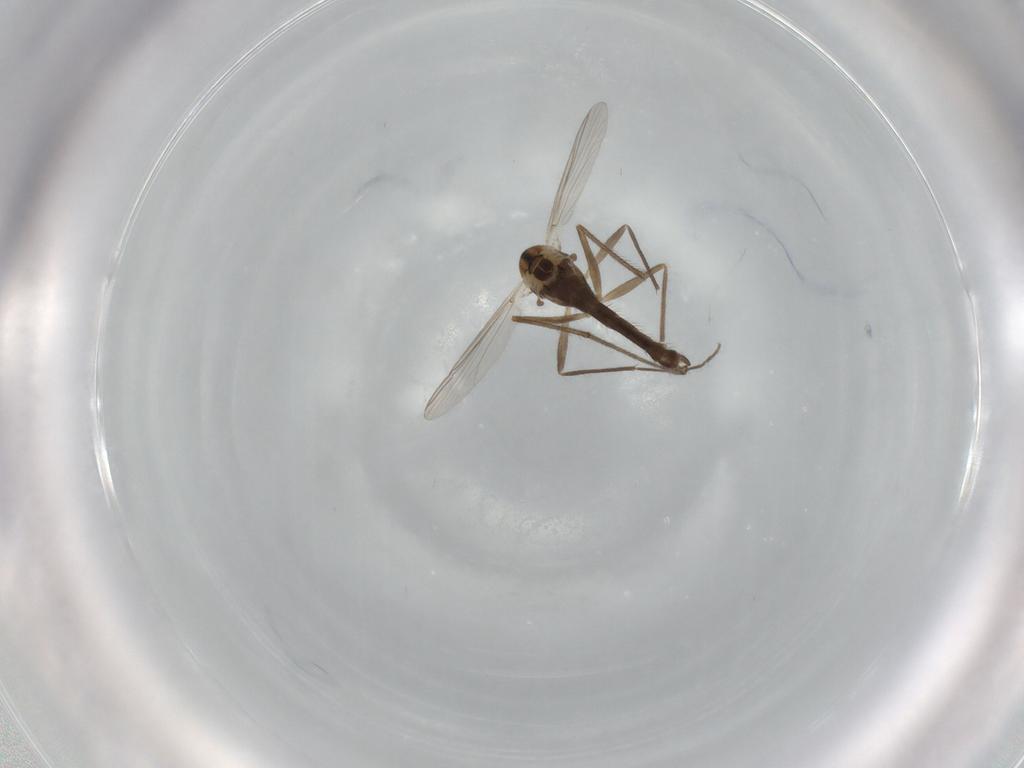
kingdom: Animalia
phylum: Arthropoda
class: Insecta
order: Diptera
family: Chironomidae
